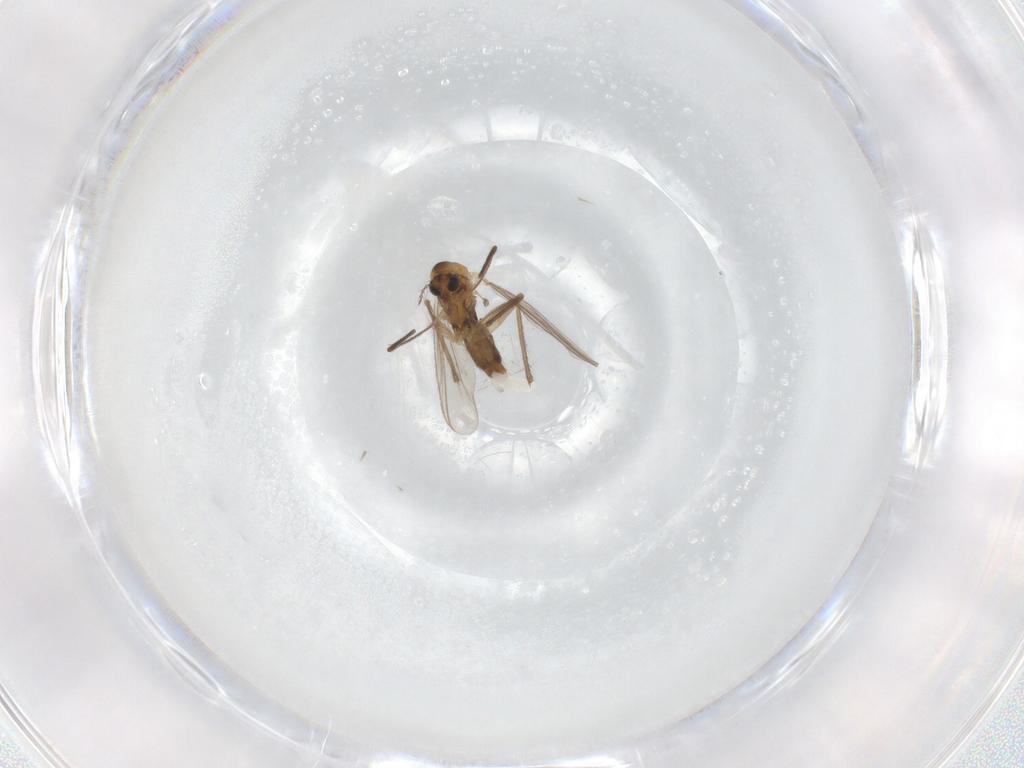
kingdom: Animalia
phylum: Arthropoda
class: Insecta
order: Diptera
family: Chironomidae
